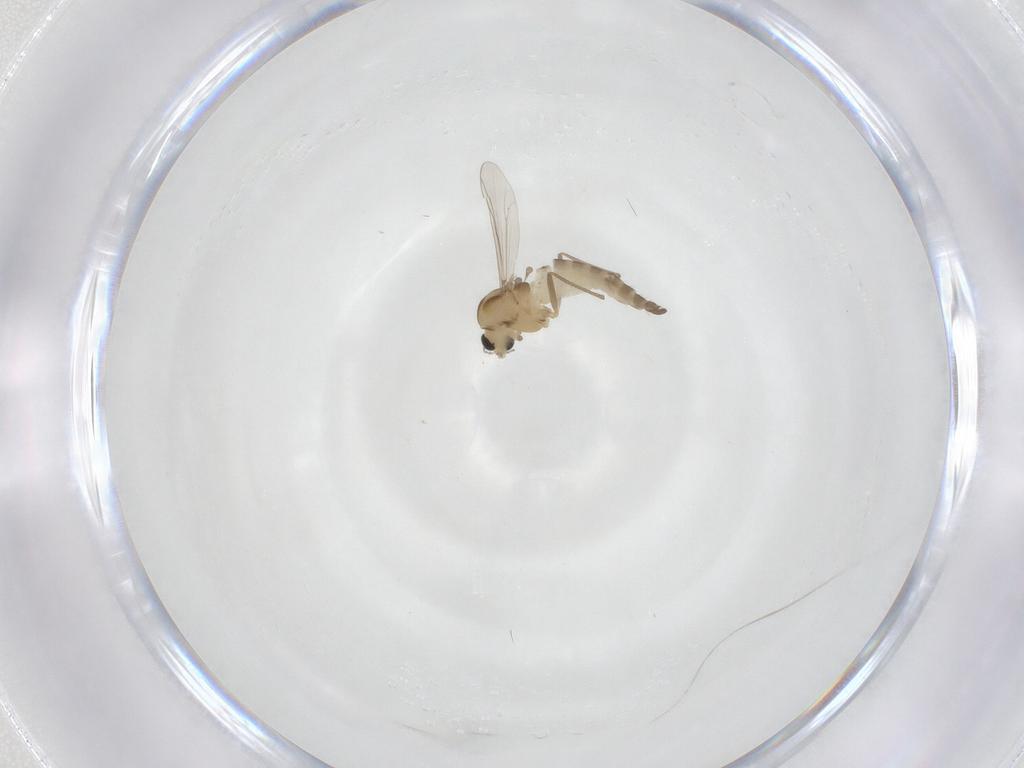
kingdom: Animalia
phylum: Arthropoda
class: Insecta
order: Diptera
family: Chironomidae
